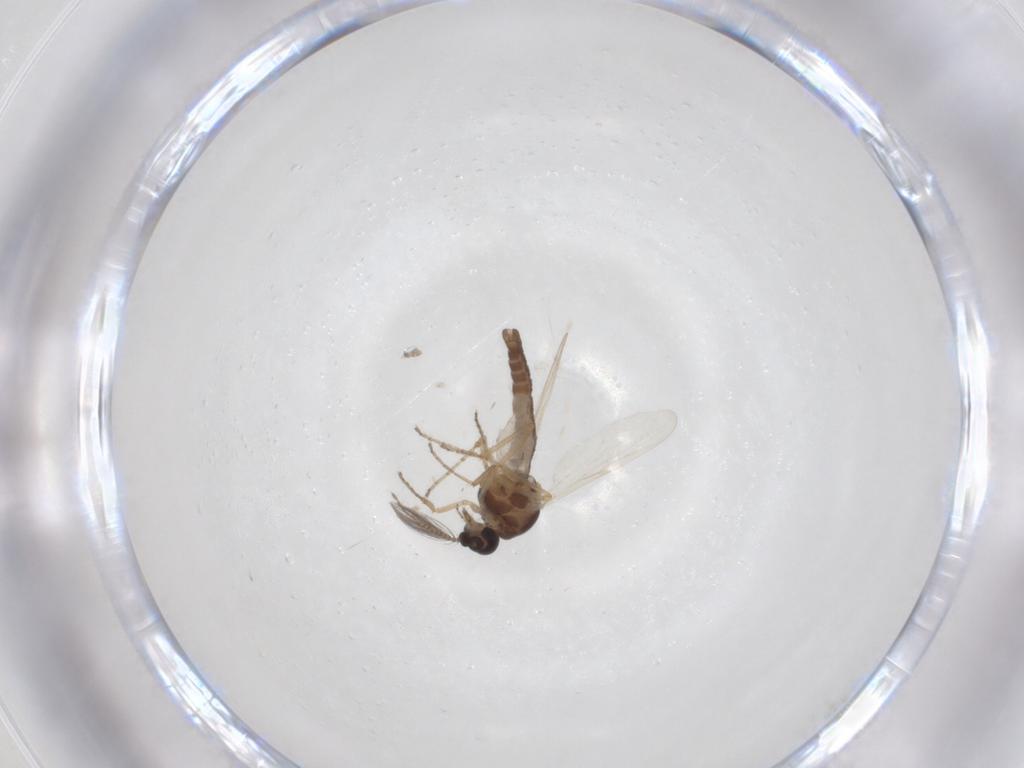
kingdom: Animalia
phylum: Arthropoda
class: Insecta
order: Diptera
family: Ceratopogonidae
